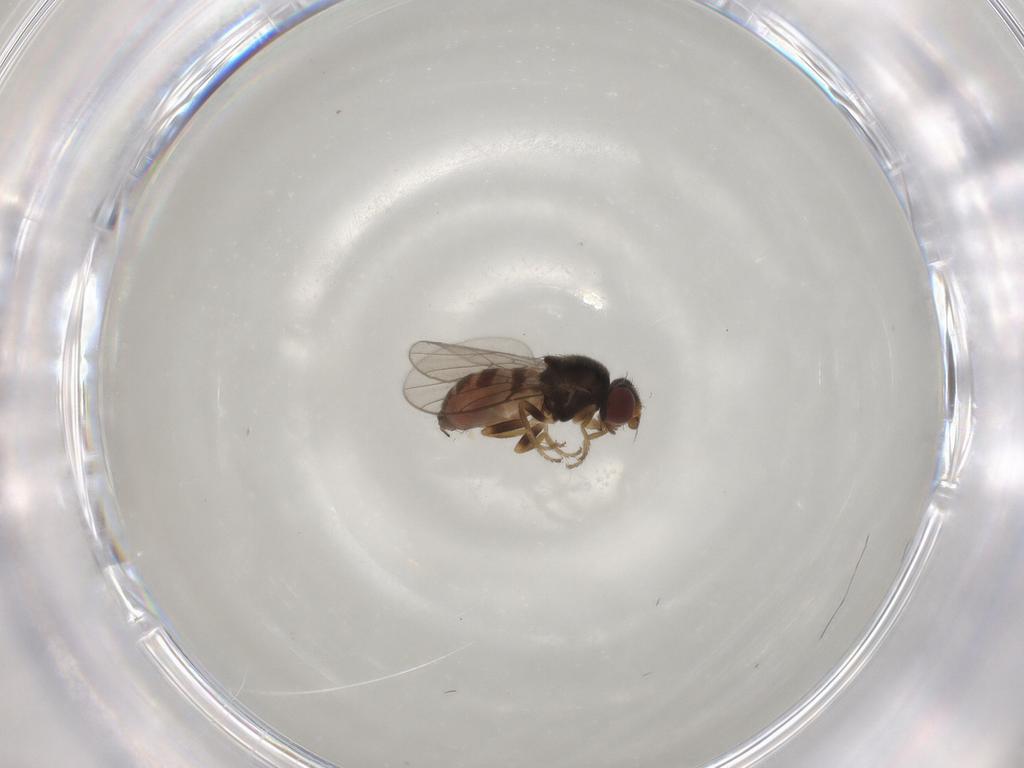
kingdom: Animalia
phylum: Arthropoda
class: Insecta
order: Diptera
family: Chloropidae
